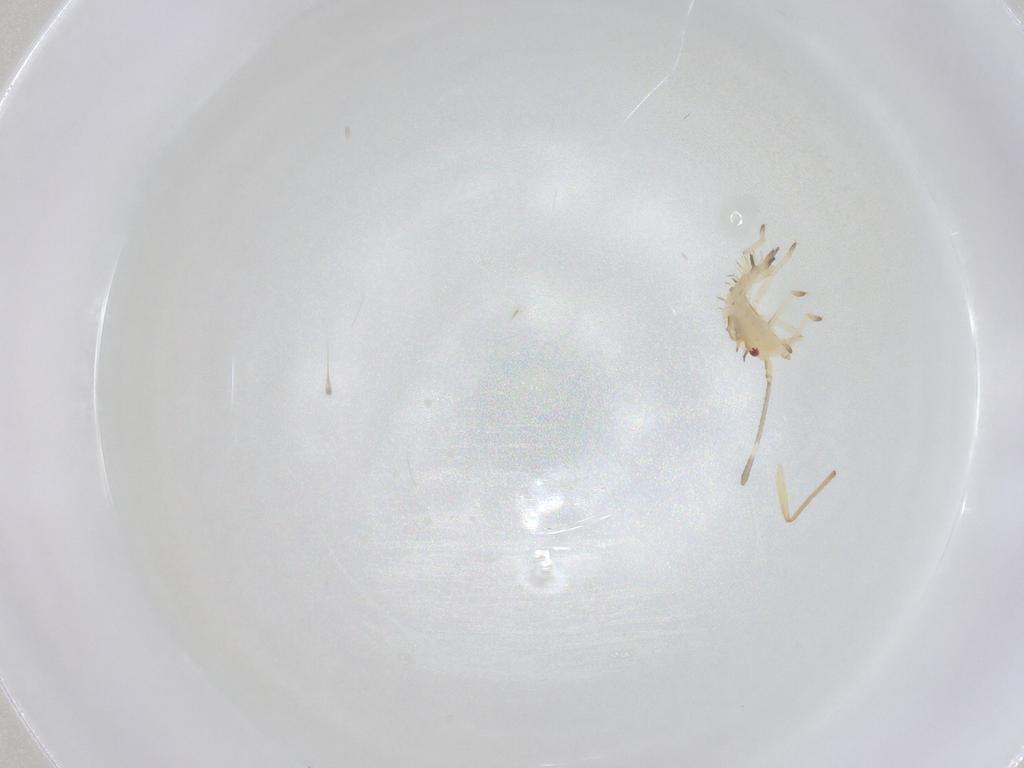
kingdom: Animalia
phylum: Arthropoda
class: Insecta
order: Hemiptera
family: Tingidae
